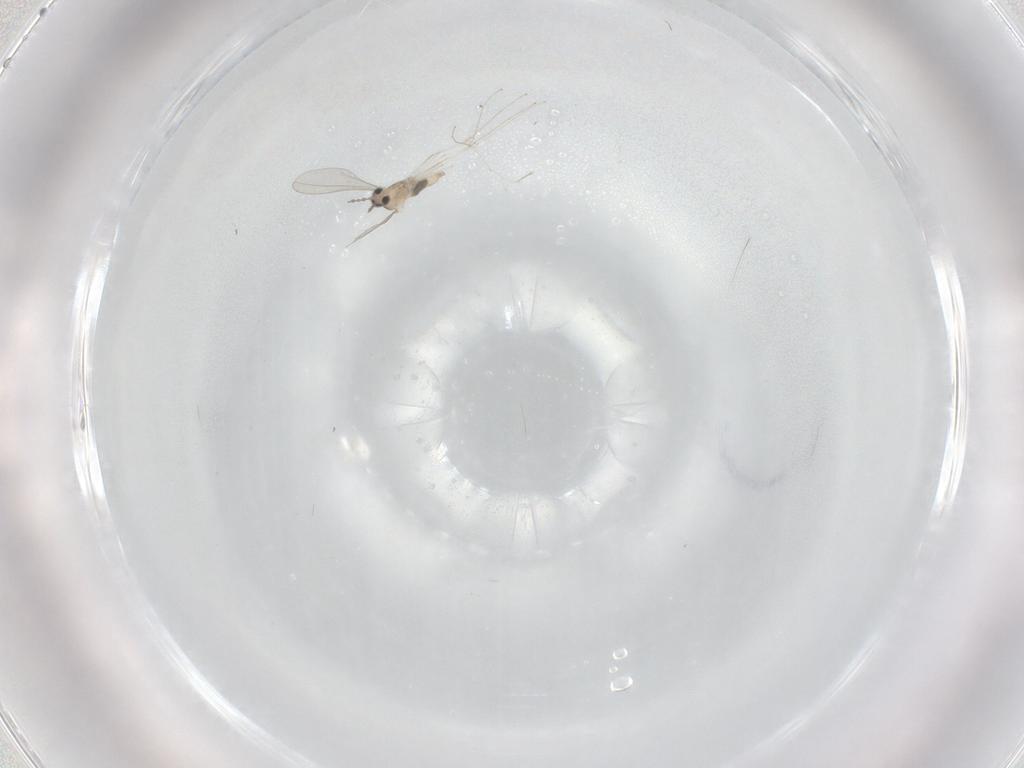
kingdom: Animalia
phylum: Arthropoda
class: Insecta
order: Diptera
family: Cecidomyiidae
